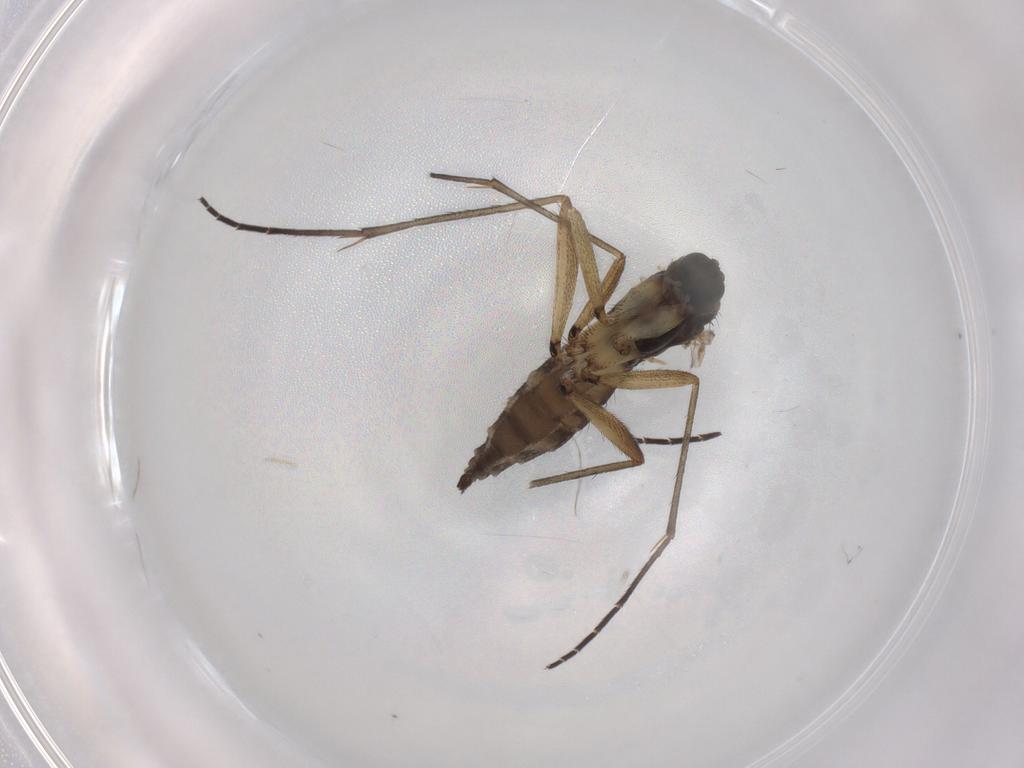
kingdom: Animalia
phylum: Arthropoda
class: Insecta
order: Diptera
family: Sciaridae
